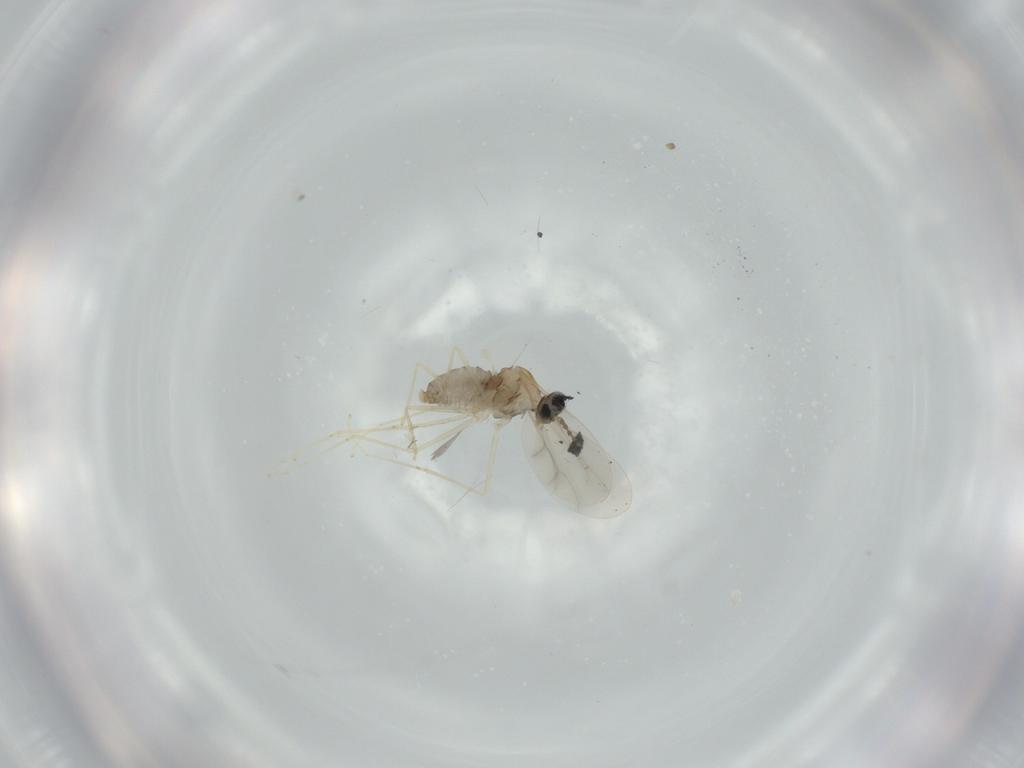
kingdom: Animalia
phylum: Arthropoda
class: Insecta
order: Diptera
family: Cecidomyiidae
